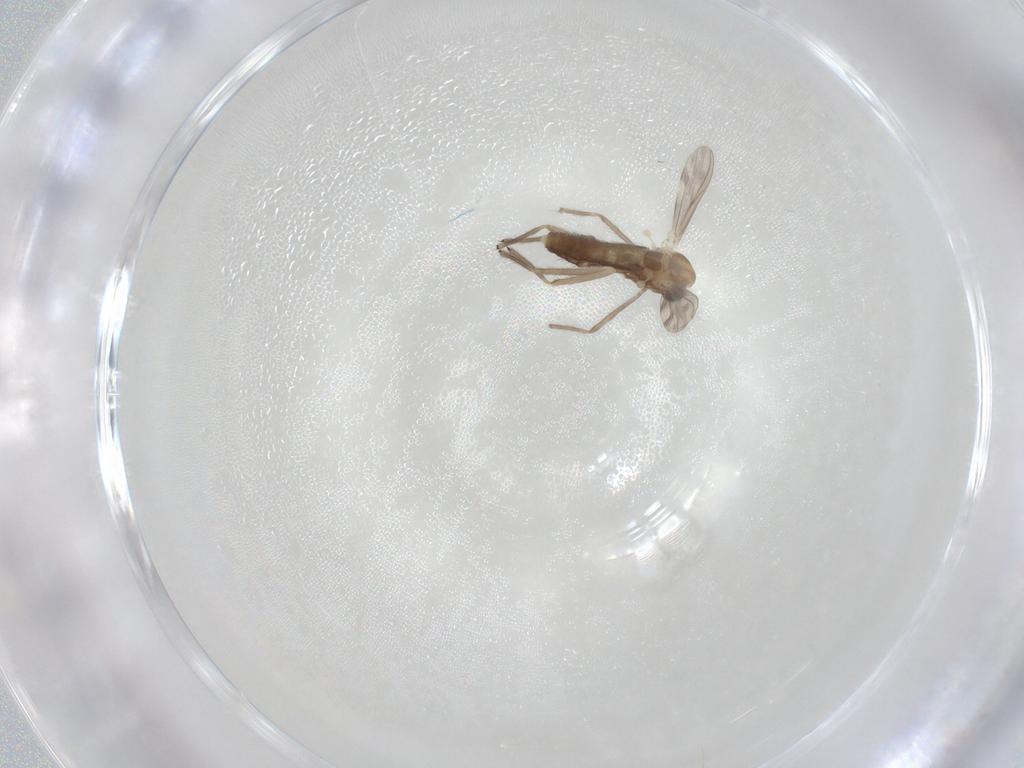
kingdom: Animalia
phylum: Arthropoda
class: Insecta
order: Diptera
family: Chironomidae
